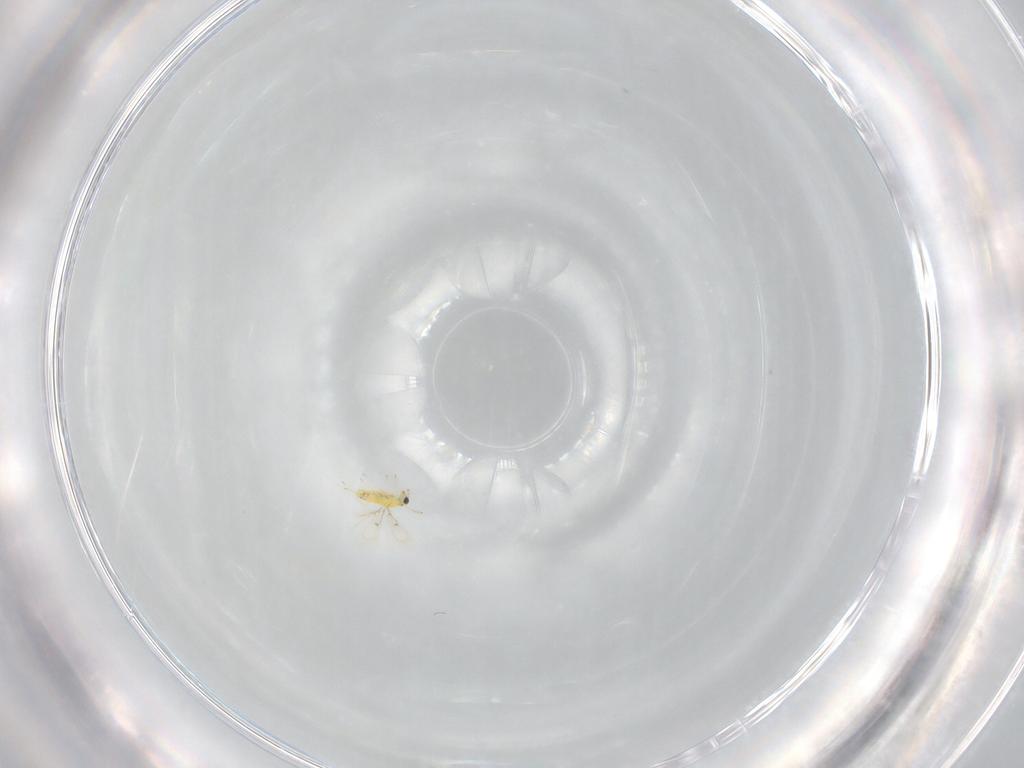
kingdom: Animalia
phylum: Arthropoda
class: Insecta
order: Hymenoptera
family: Trichogrammatidae
